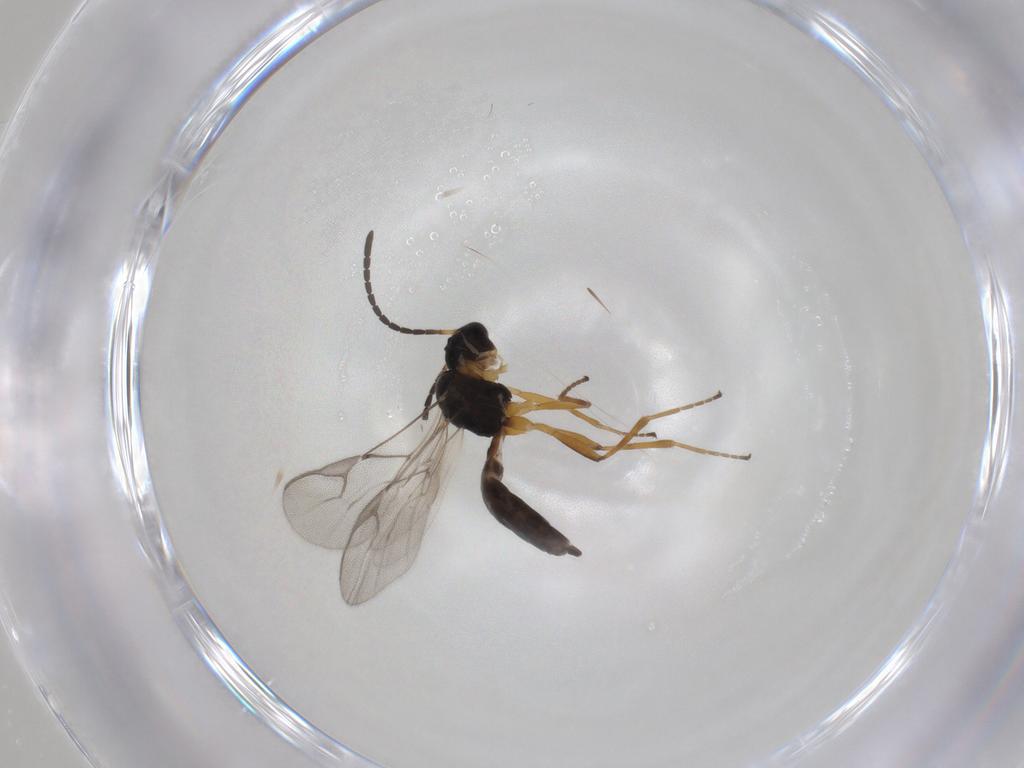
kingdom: Animalia
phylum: Arthropoda
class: Insecta
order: Hymenoptera
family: Braconidae
